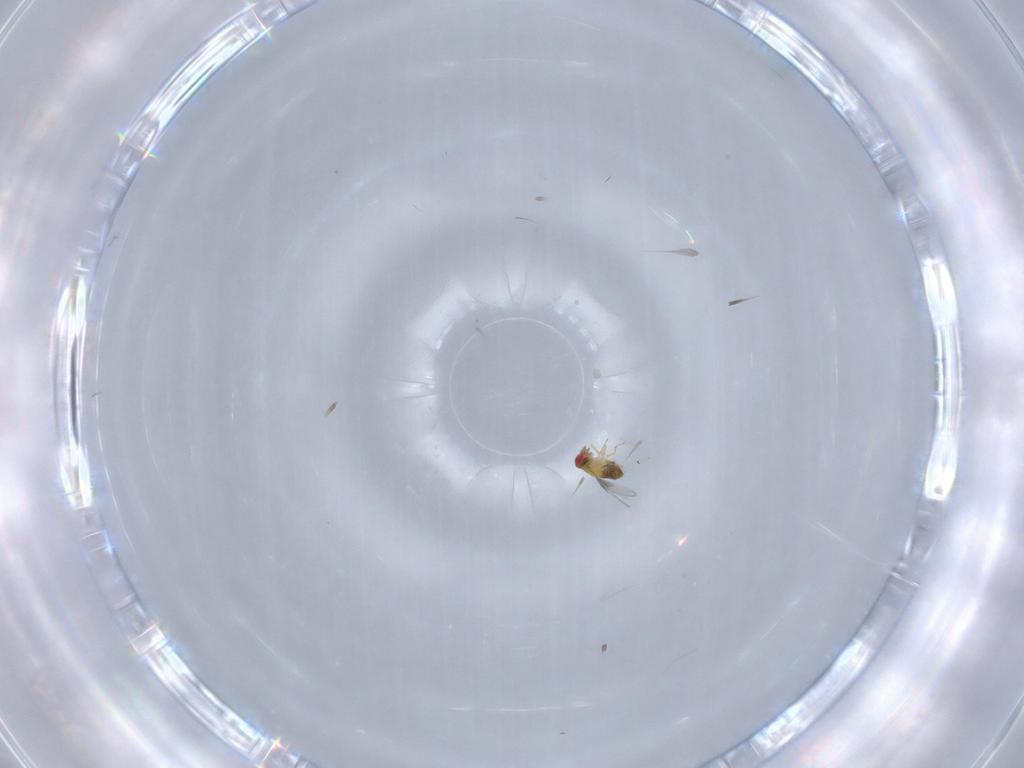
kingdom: Animalia
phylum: Arthropoda
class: Insecta
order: Hymenoptera
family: Trichogrammatidae
